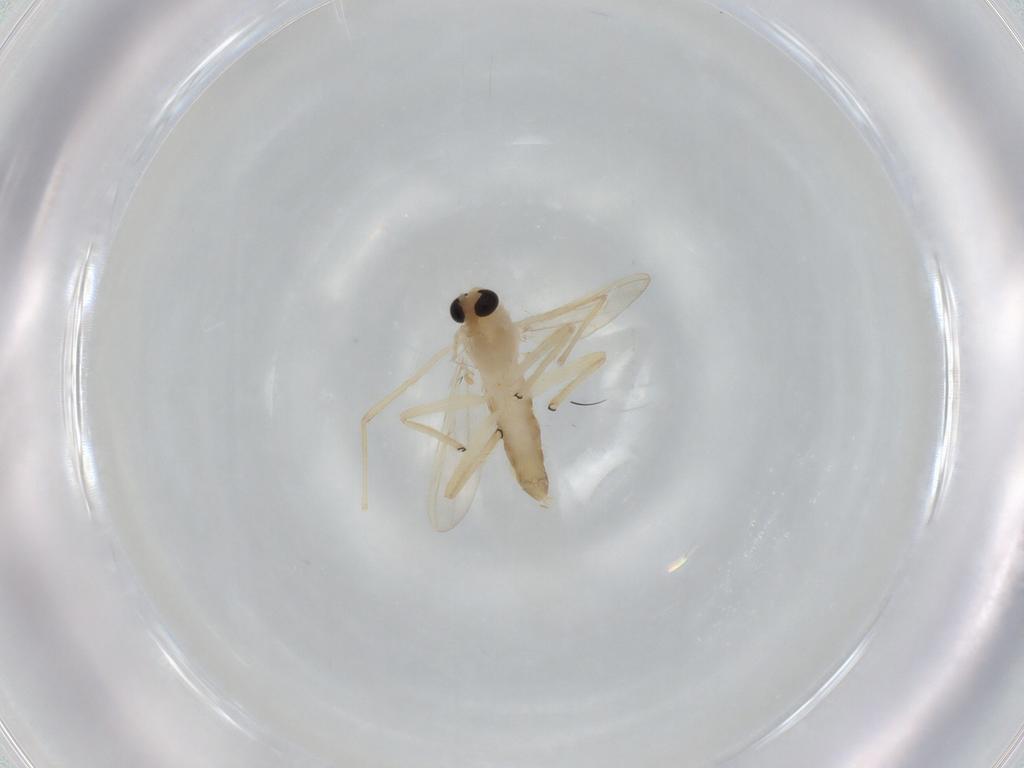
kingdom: Animalia
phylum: Arthropoda
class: Insecta
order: Diptera
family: Chironomidae
